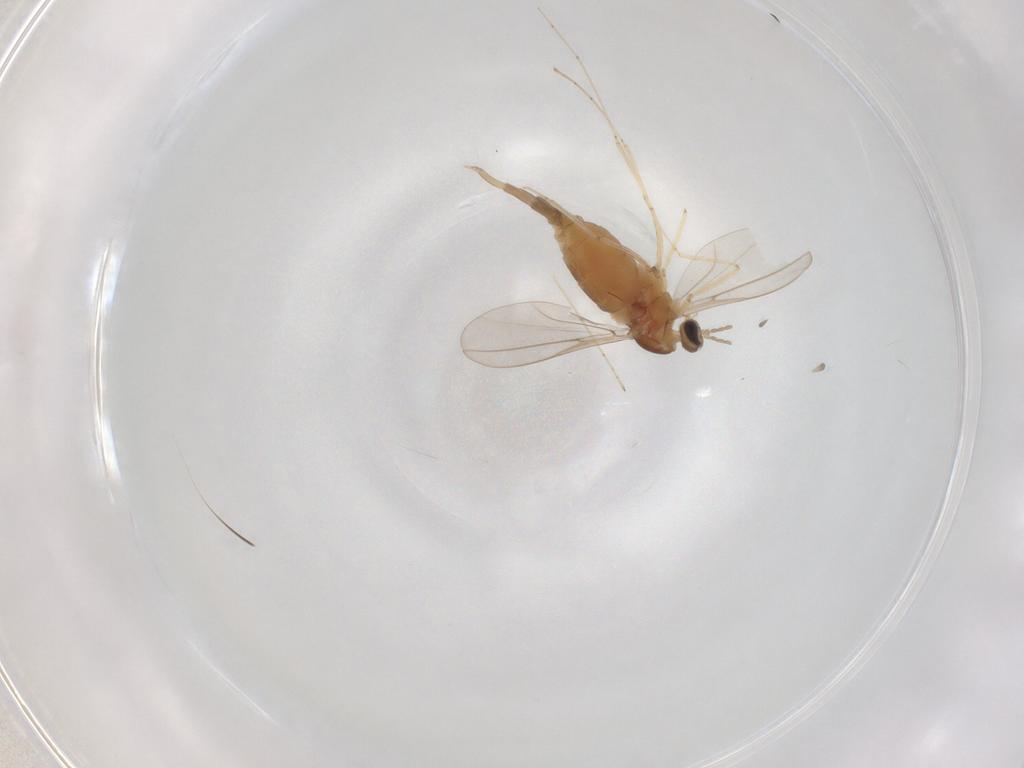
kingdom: Animalia
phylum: Arthropoda
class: Insecta
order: Diptera
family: Cecidomyiidae
